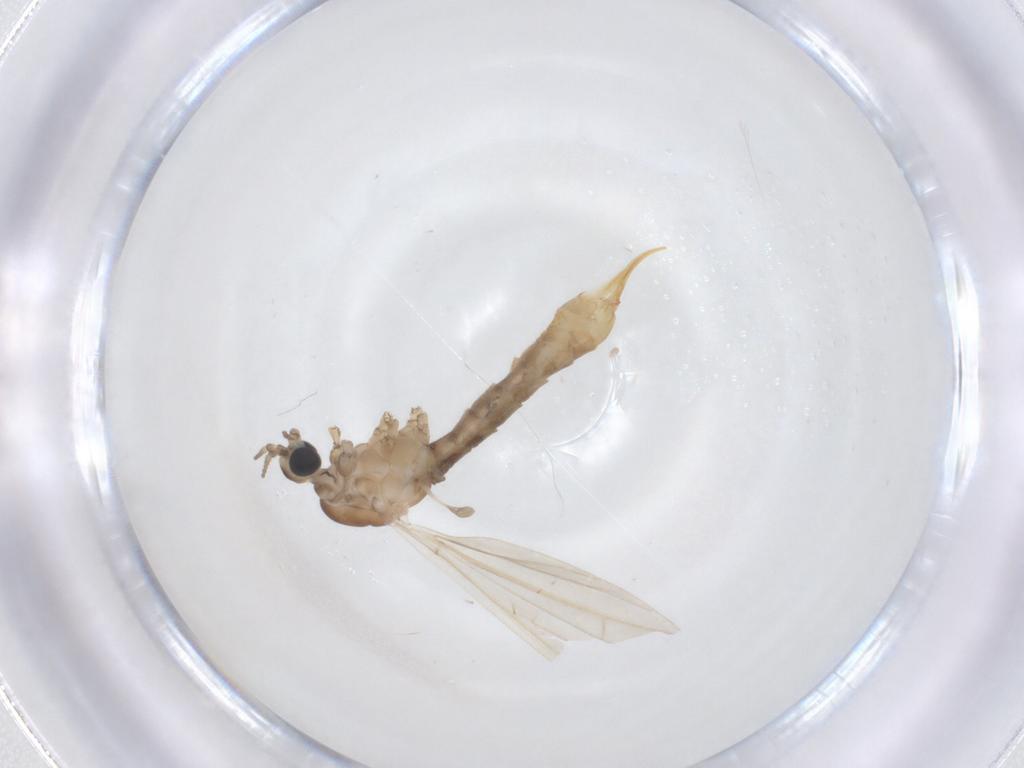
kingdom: Animalia
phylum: Arthropoda
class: Insecta
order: Diptera
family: Limoniidae
